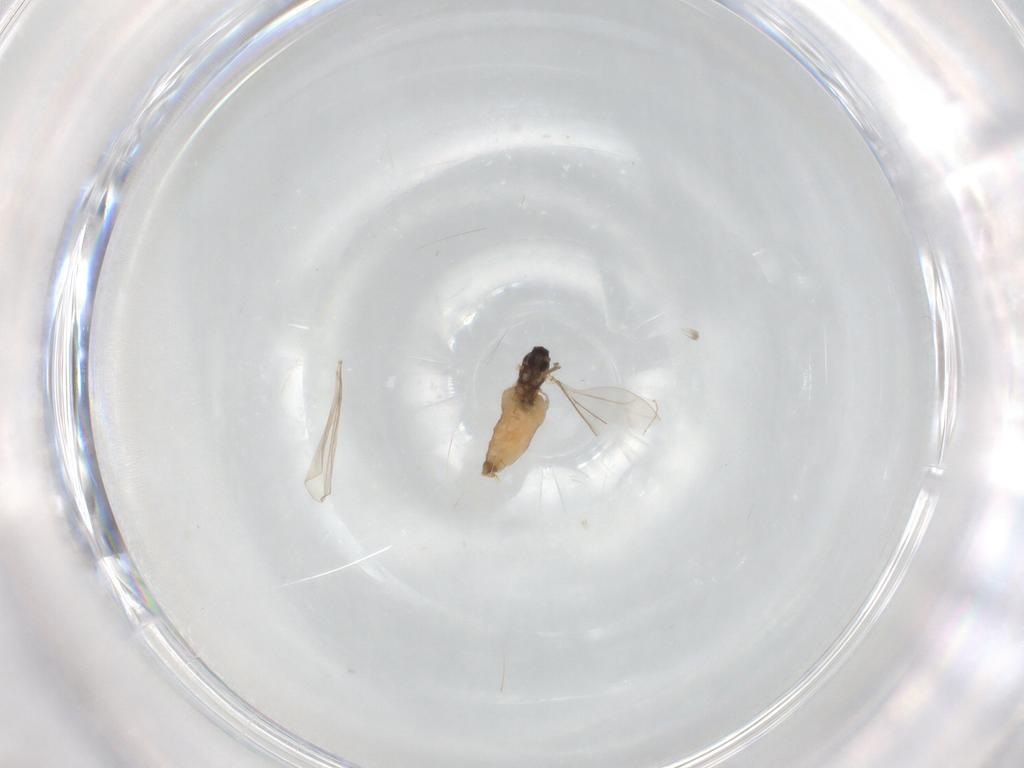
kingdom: Animalia
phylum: Arthropoda
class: Insecta
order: Diptera
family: Cecidomyiidae
